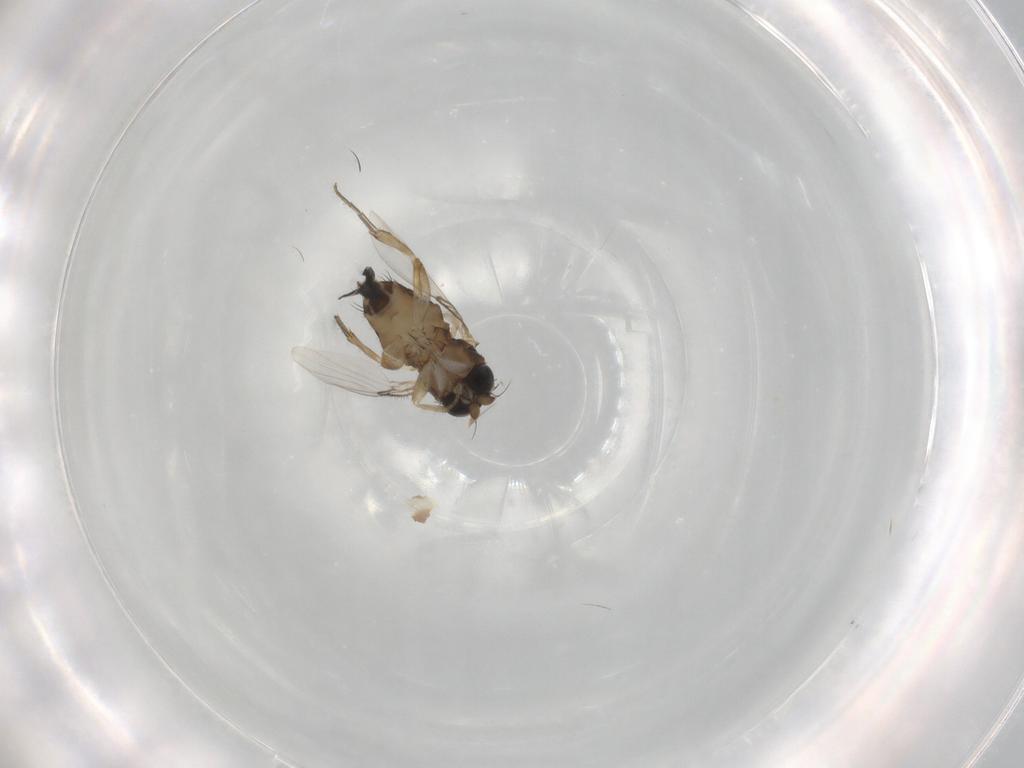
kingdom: Animalia
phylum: Arthropoda
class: Insecta
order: Diptera
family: Phoridae
